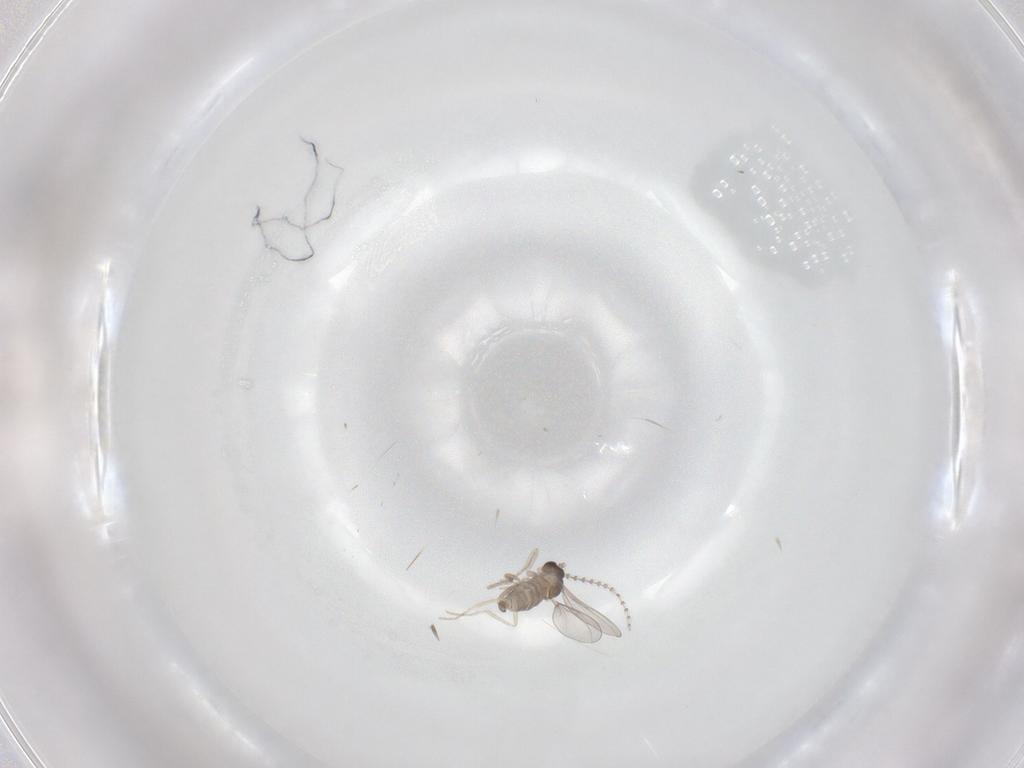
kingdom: Animalia
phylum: Arthropoda
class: Insecta
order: Diptera
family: Cecidomyiidae
